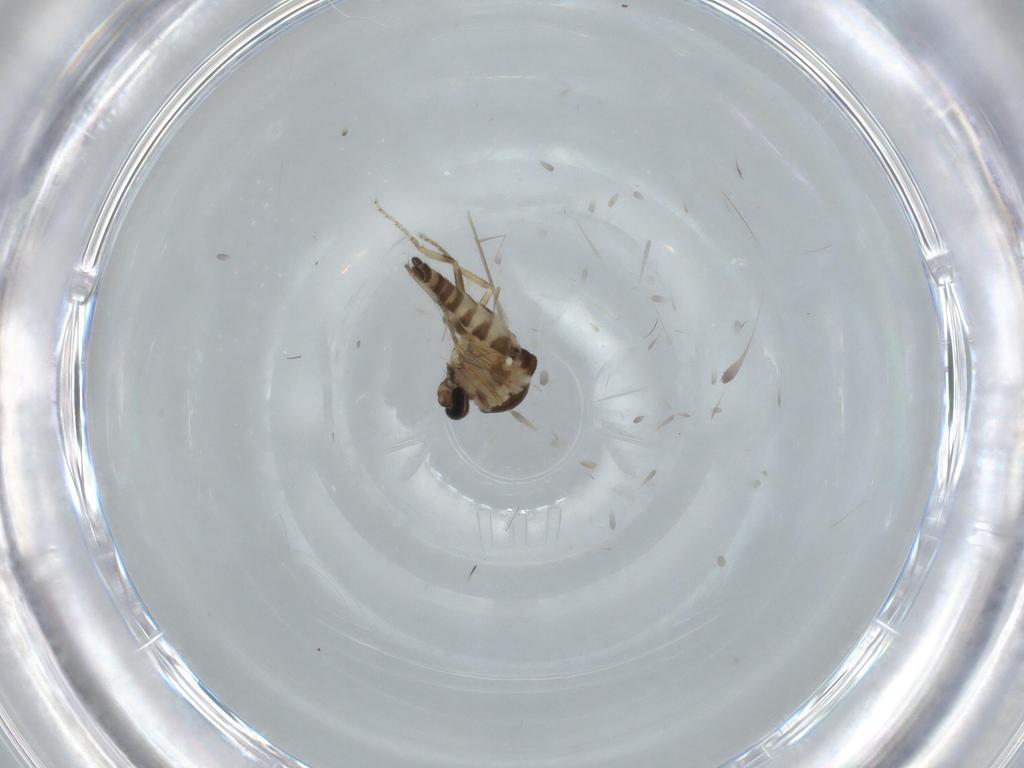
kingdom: Animalia
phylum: Arthropoda
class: Insecta
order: Diptera
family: Ceratopogonidae
